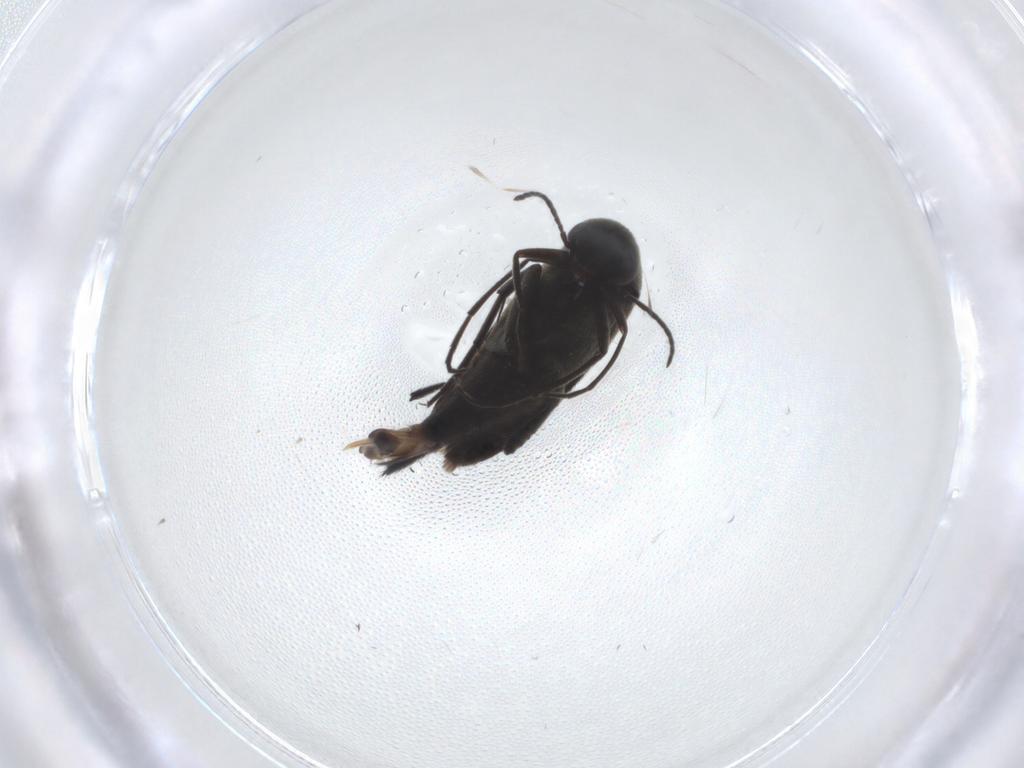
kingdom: Animalia
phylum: Arthropoda
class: Insecta
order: Coleoptera
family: Mordellidae
